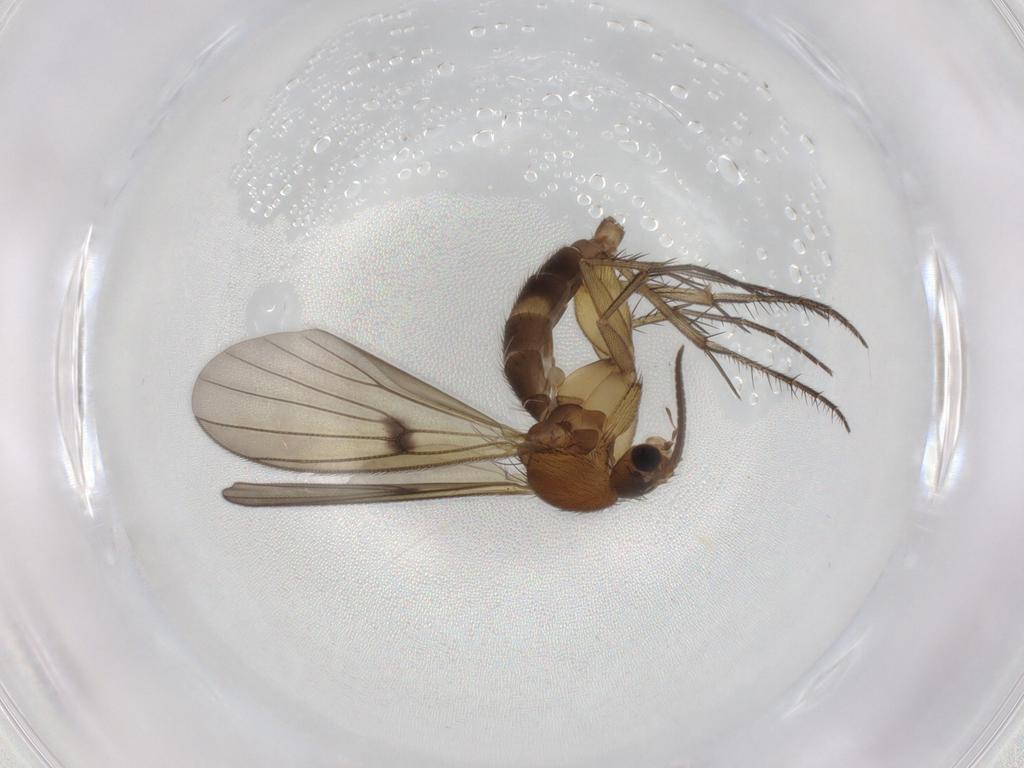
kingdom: Animalia
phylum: Arthropoda
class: Insecta
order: Diptera
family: Mycetophilidae
